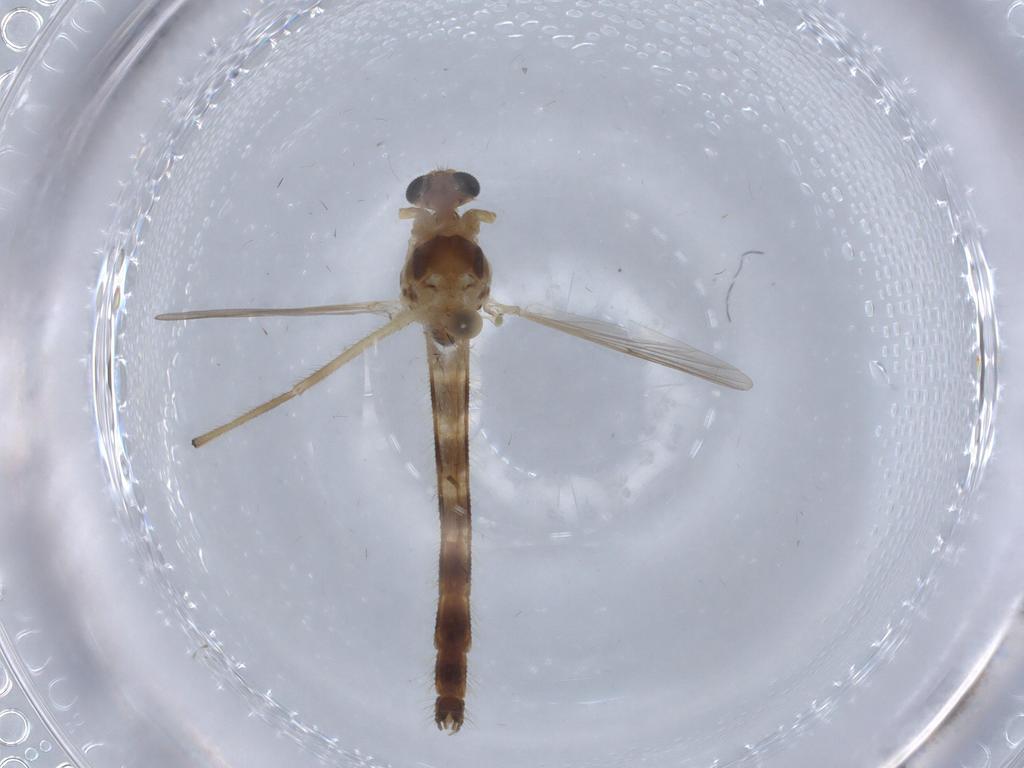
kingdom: Animalia
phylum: Arthropoda
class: Insecta
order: Diptera
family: Chironomidae
